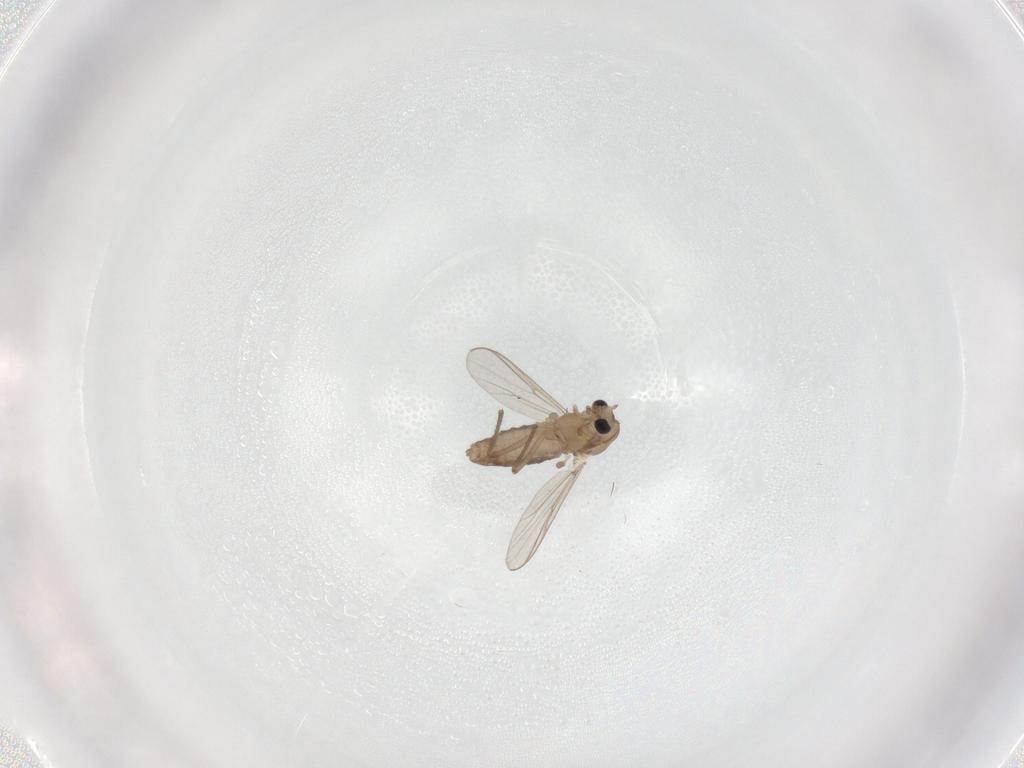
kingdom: Animalia
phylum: Arthropoda
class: Insecta
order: Diptera
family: Chironomidae
